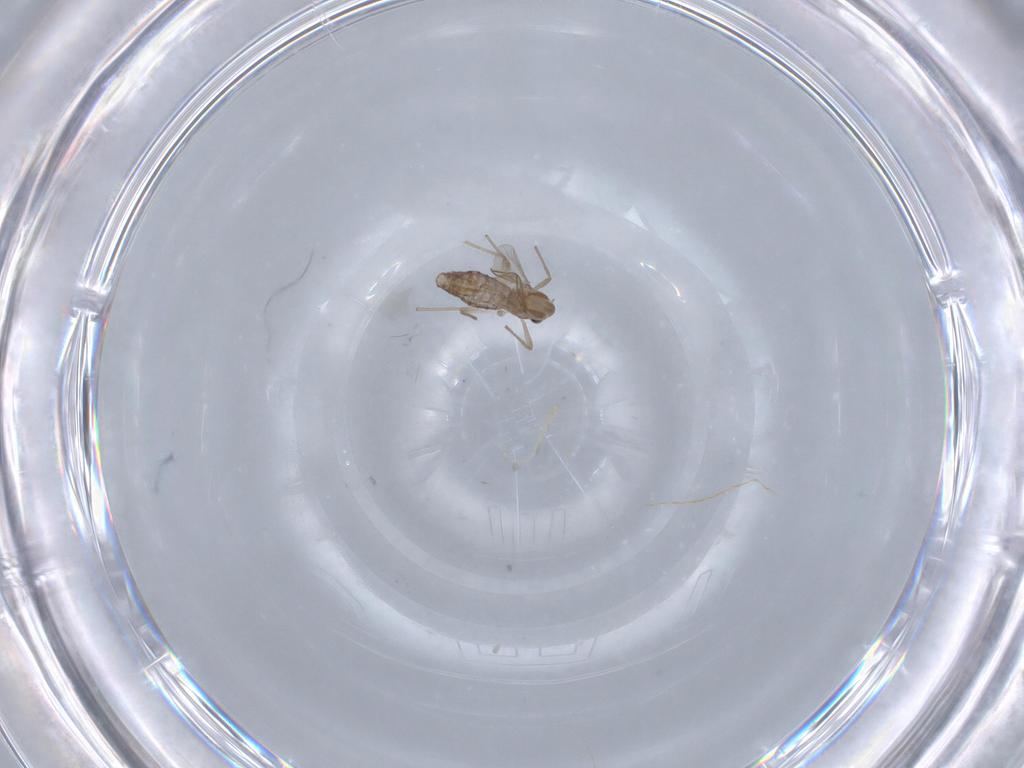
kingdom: Animalia
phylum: Arthropoda
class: Insecta
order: Diptera
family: Chironomidae
